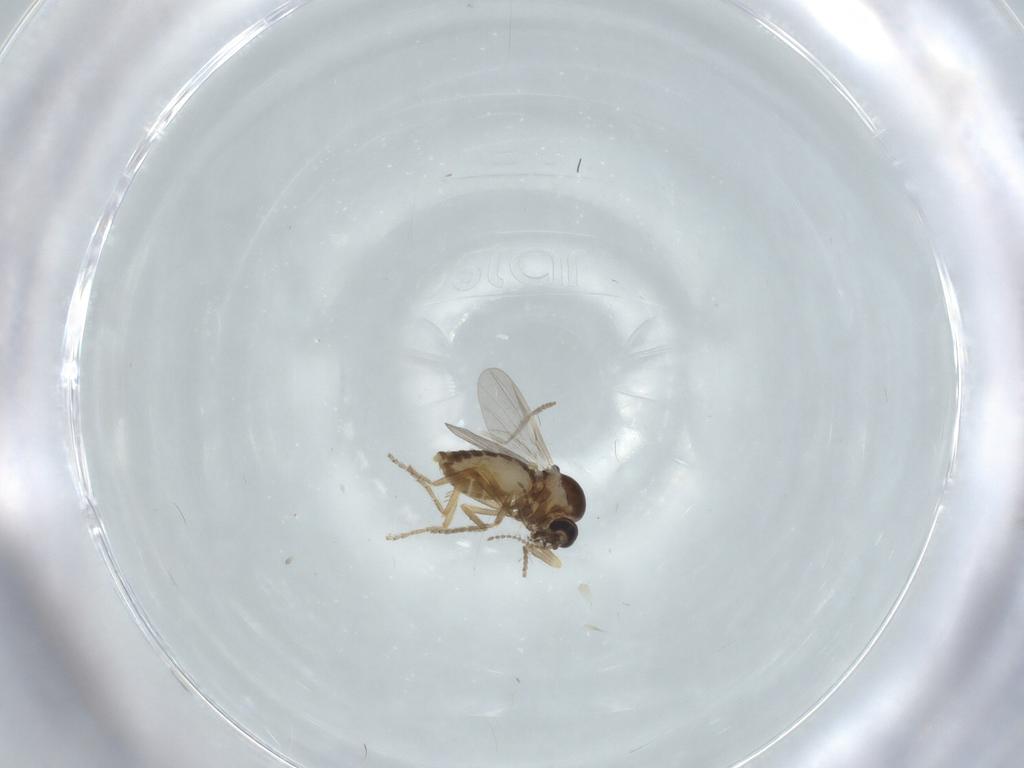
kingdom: Animalia
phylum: Arthropoda
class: Insecta
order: Diptera
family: Ceratopogonidae
